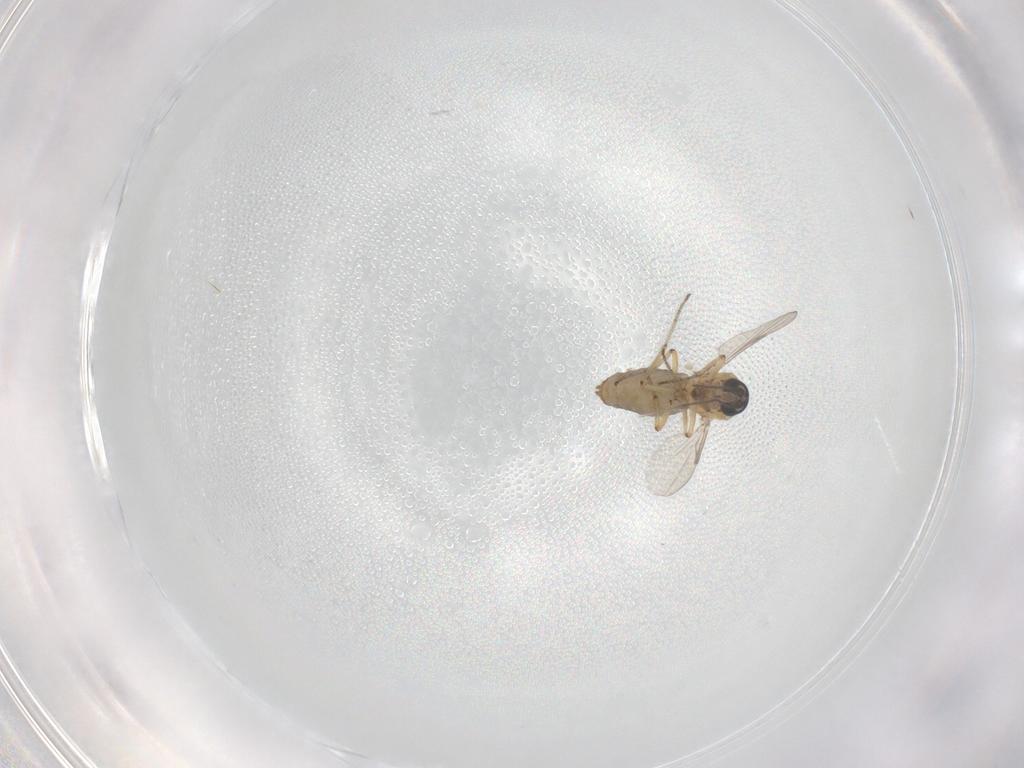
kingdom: Animalia
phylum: Arthropoda
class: Insecta
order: Diptera
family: Ceratopogonidae
